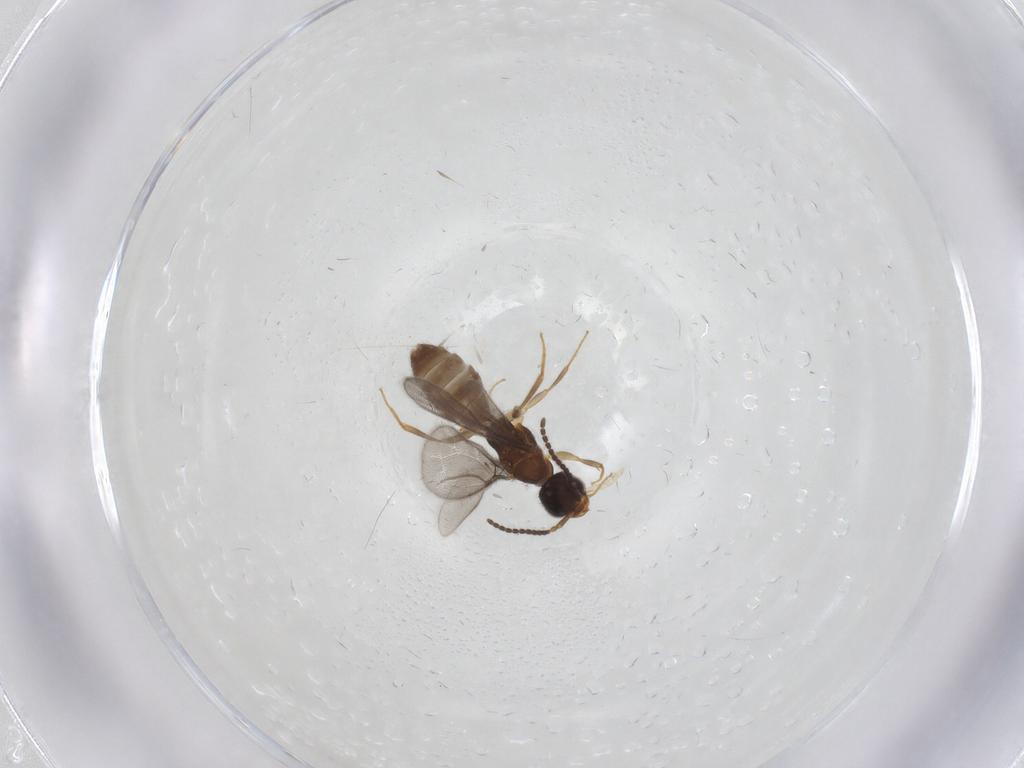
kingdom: Animalia
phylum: Arthropoda
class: Insecta
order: Hymenoptera
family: Bethylidae
